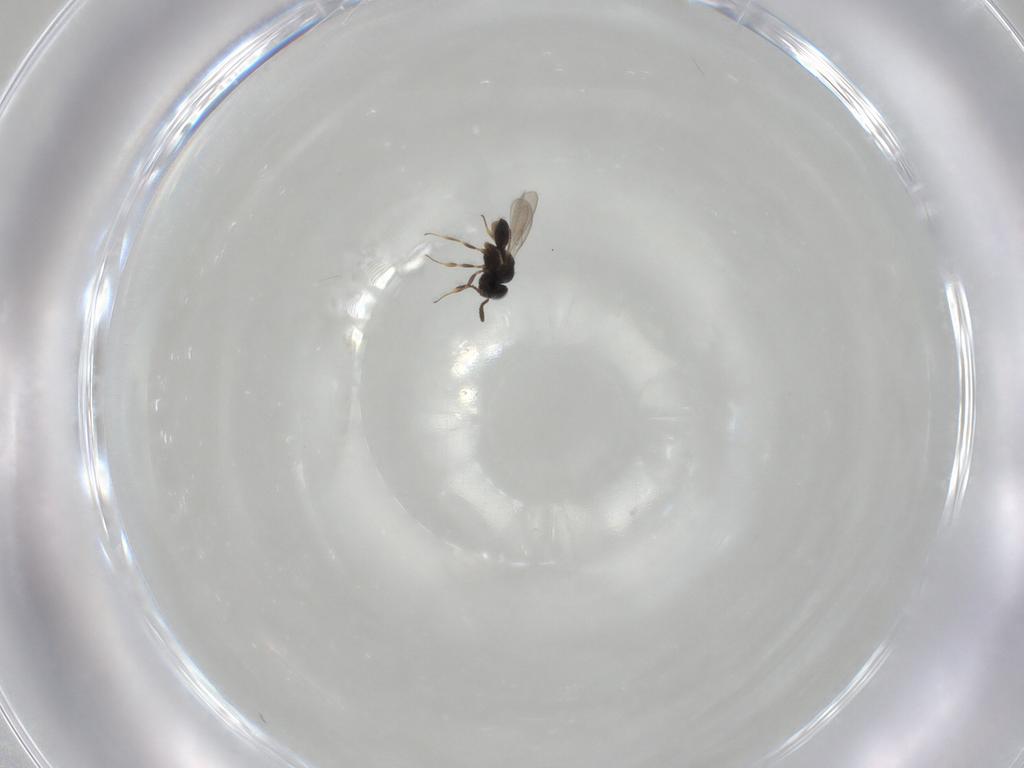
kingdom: Animalia
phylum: Arthropoda
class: Insecta
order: Hymenoptera
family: Scelionidae
